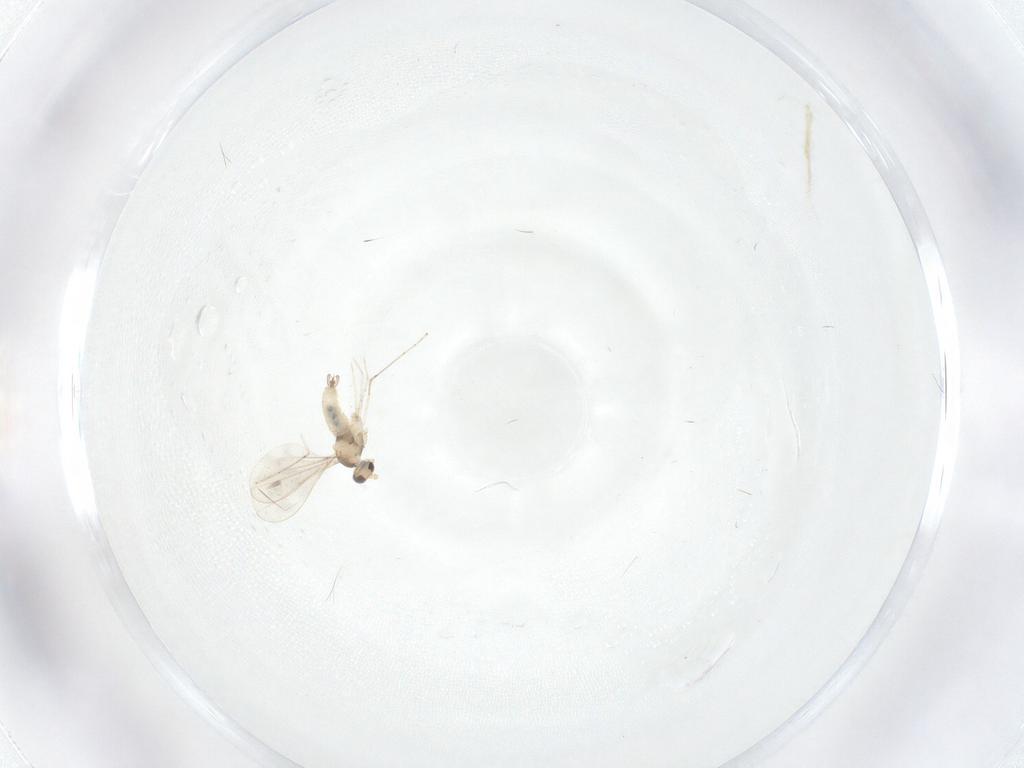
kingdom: Animalia
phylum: Arthropoda
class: Insecta
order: Diptera
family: Cecidomyiidae
